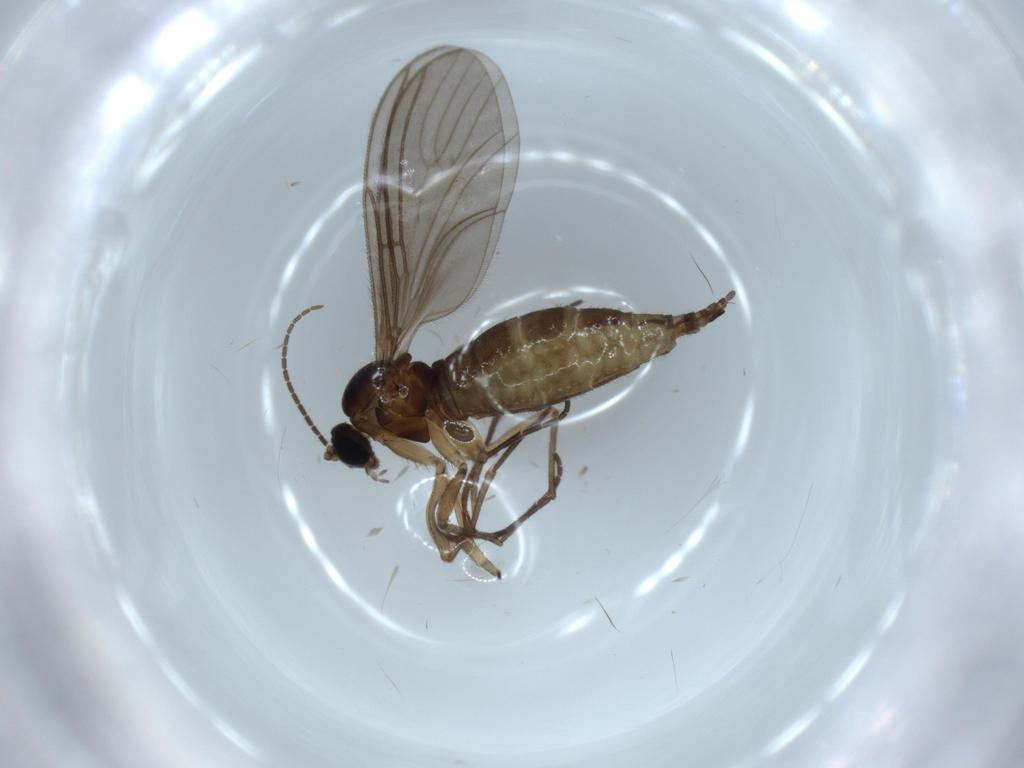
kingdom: Animalia
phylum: Arthropoda
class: Insecta
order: Diptera
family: Sciaridae
